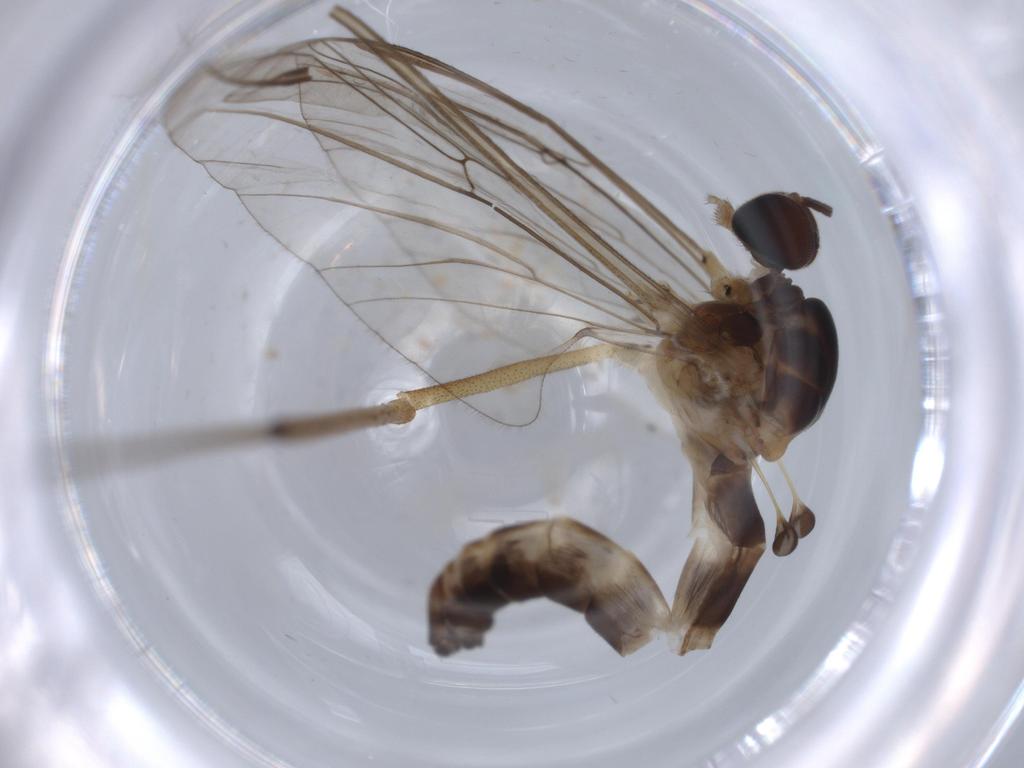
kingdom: Animalia
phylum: Arthropoda
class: Insecta
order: Diptera
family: Blephariceridae
